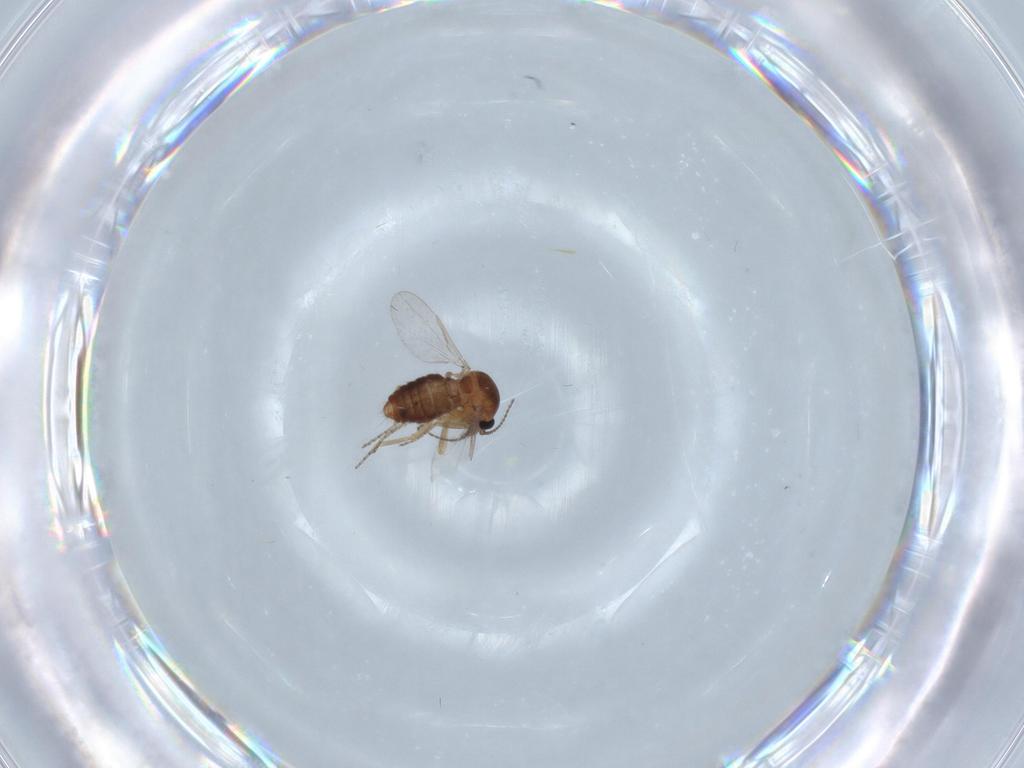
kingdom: Animalia
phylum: Arthropoda
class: Insecta
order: Diptera
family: Ceratopogonidae
